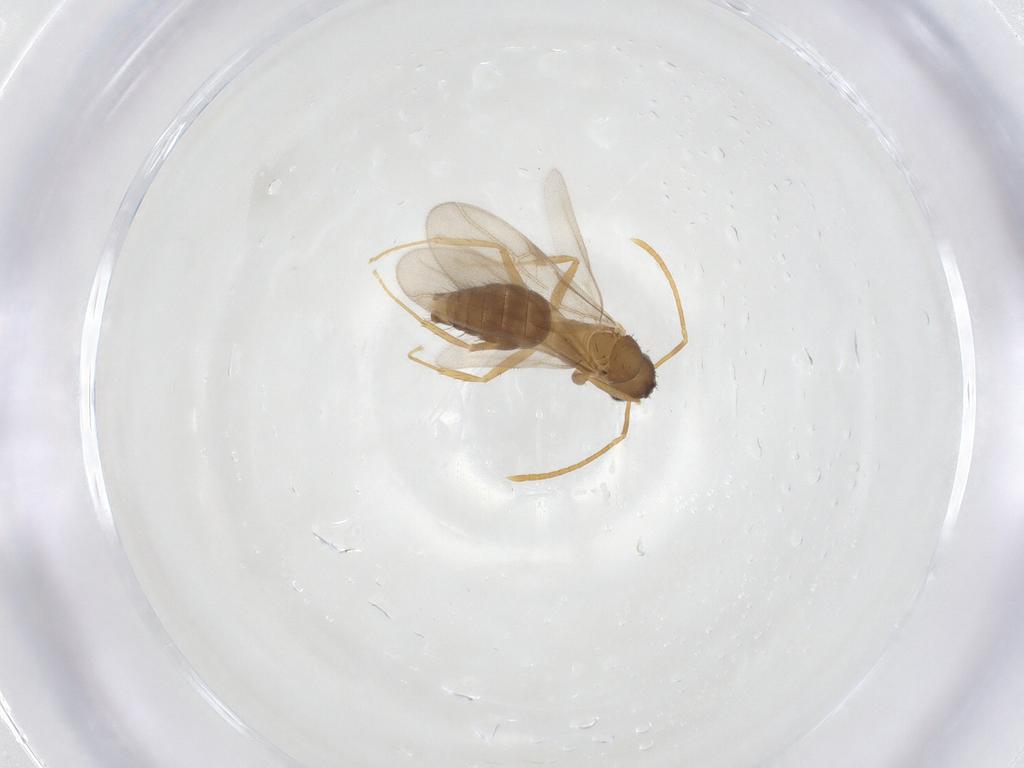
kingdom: Animalia
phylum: Arthropoda
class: Insecta
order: Hymenoptera
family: Formicidae
